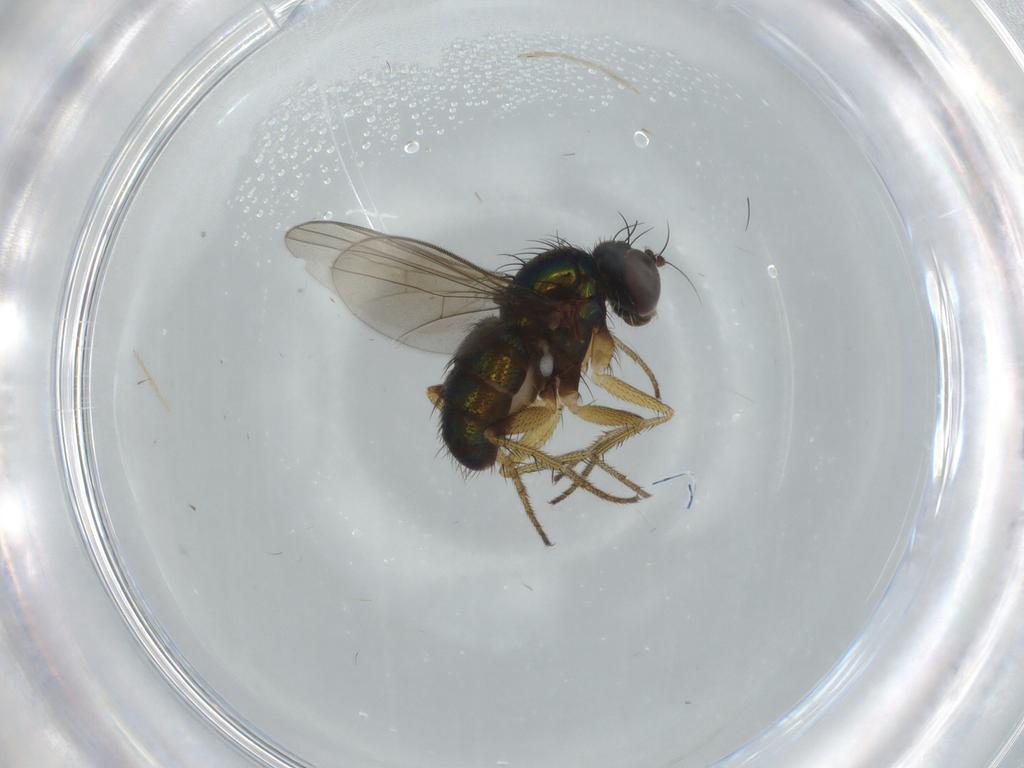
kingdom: Animalia
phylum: Arthropoda
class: Insecta
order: Diptera
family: Dolichopodidae
